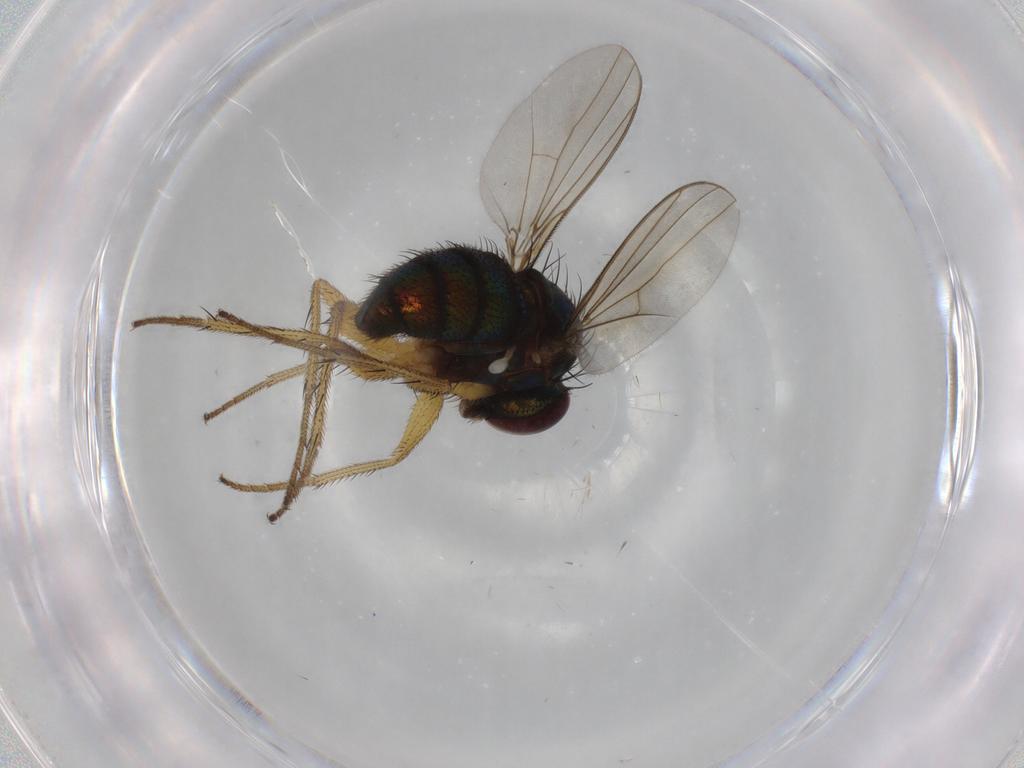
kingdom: Animalia
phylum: Arthropoda
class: Insecta
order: Diptera
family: Dolichopodidae
